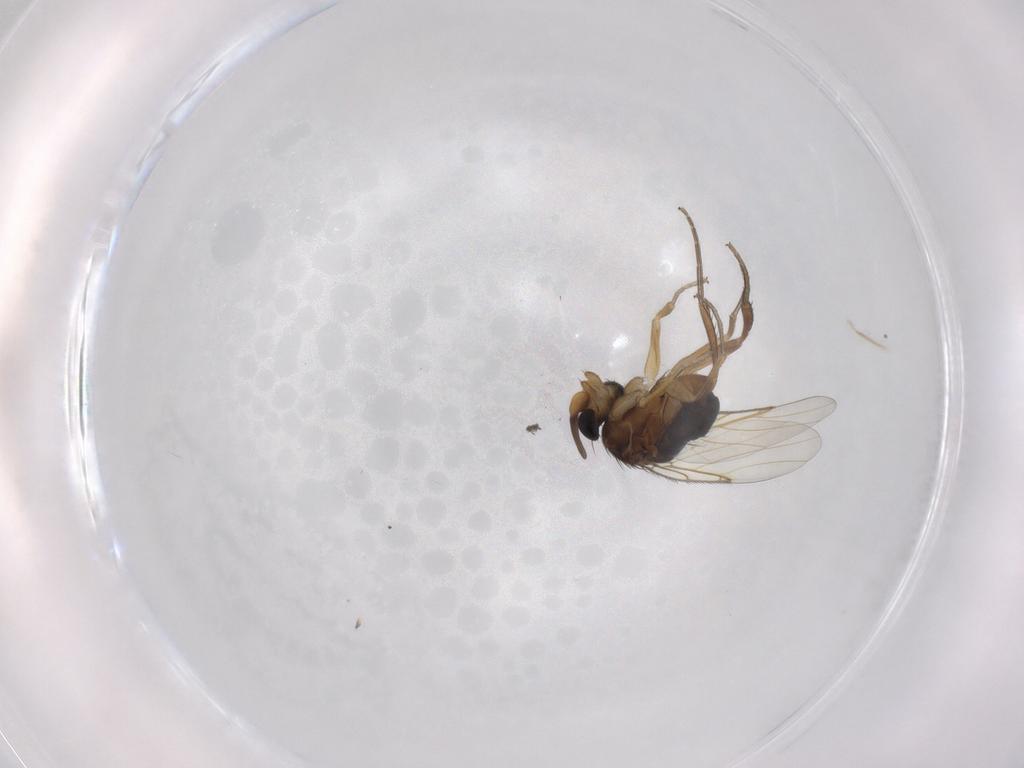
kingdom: Animalia
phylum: Arthropoda
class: Insecta
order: Diptera
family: Phoridae
